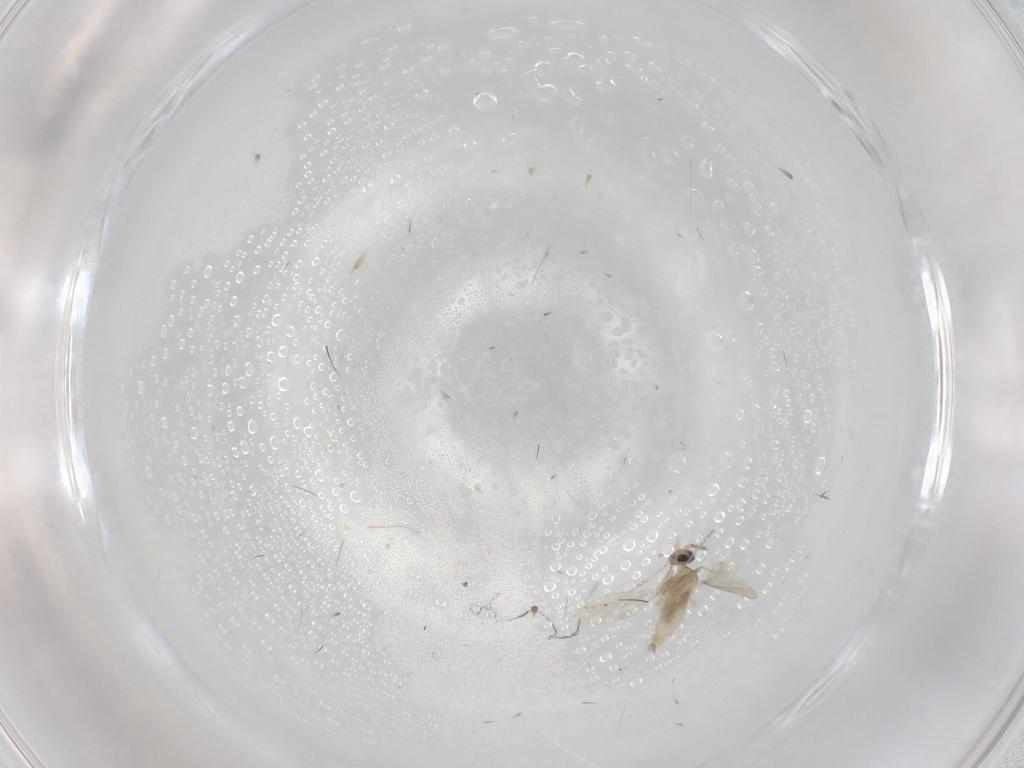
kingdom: Animalia
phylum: Arthropoda
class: Insecta
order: Diptera
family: Cecidomyiidae
